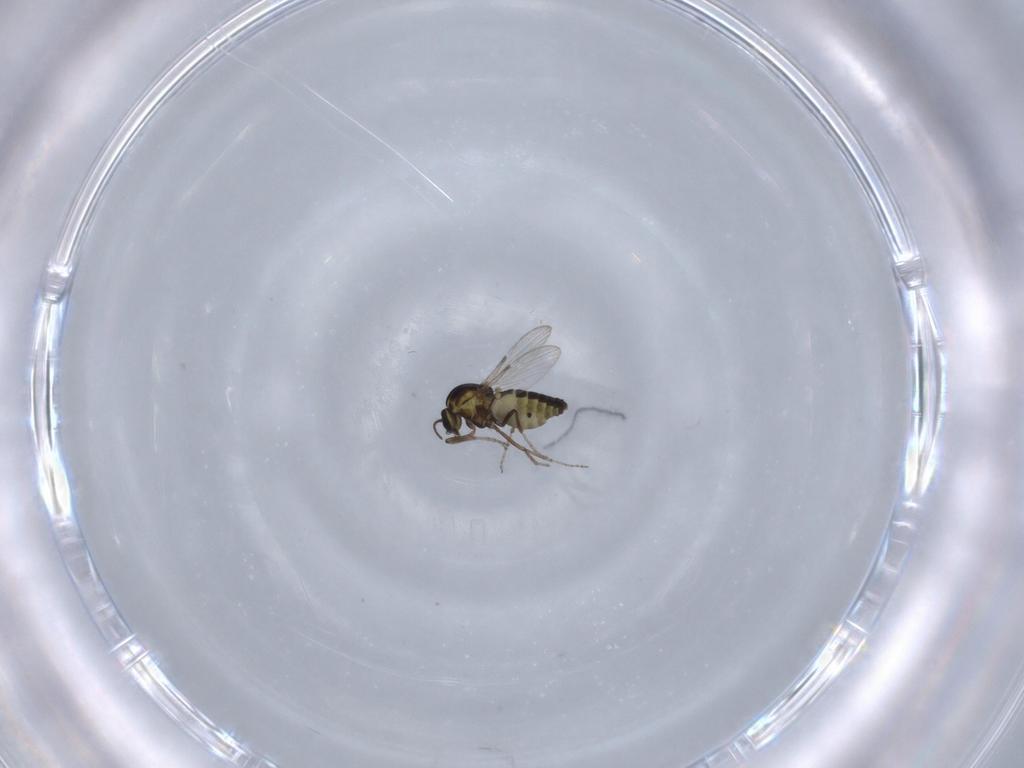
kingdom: Animalia
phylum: Arthropoda
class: Insecta
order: Diptera
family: Ceratopogonidae
